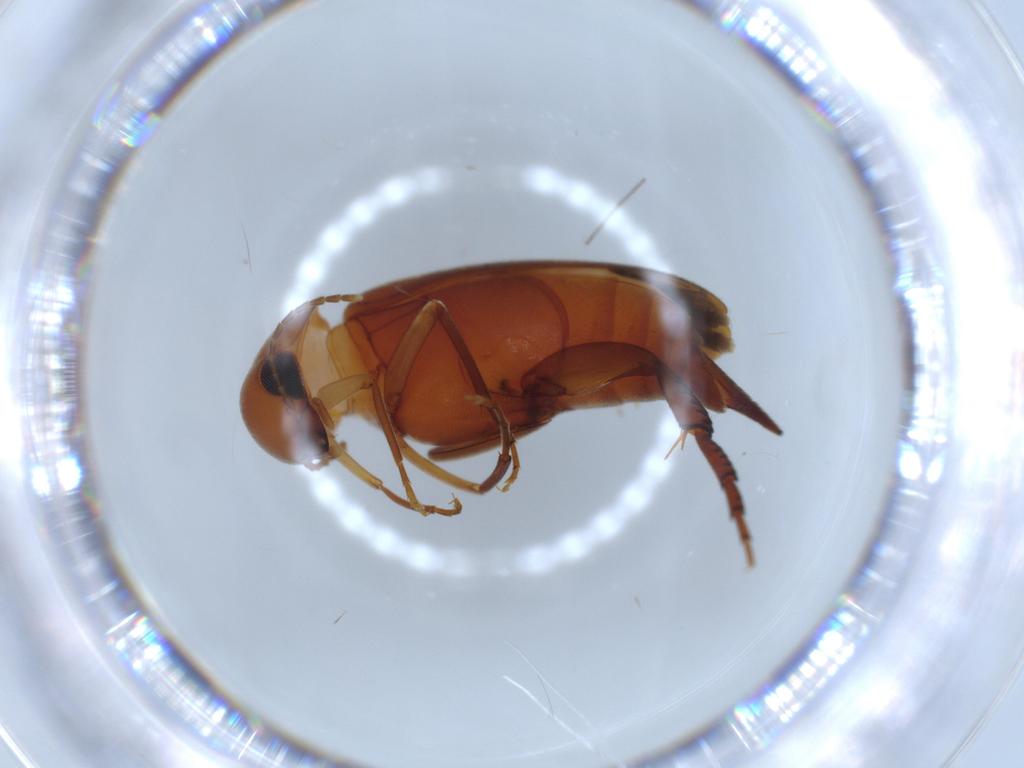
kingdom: Animalia
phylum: Arthropoda
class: Insecta
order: Coleoptera
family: Mordellidae
